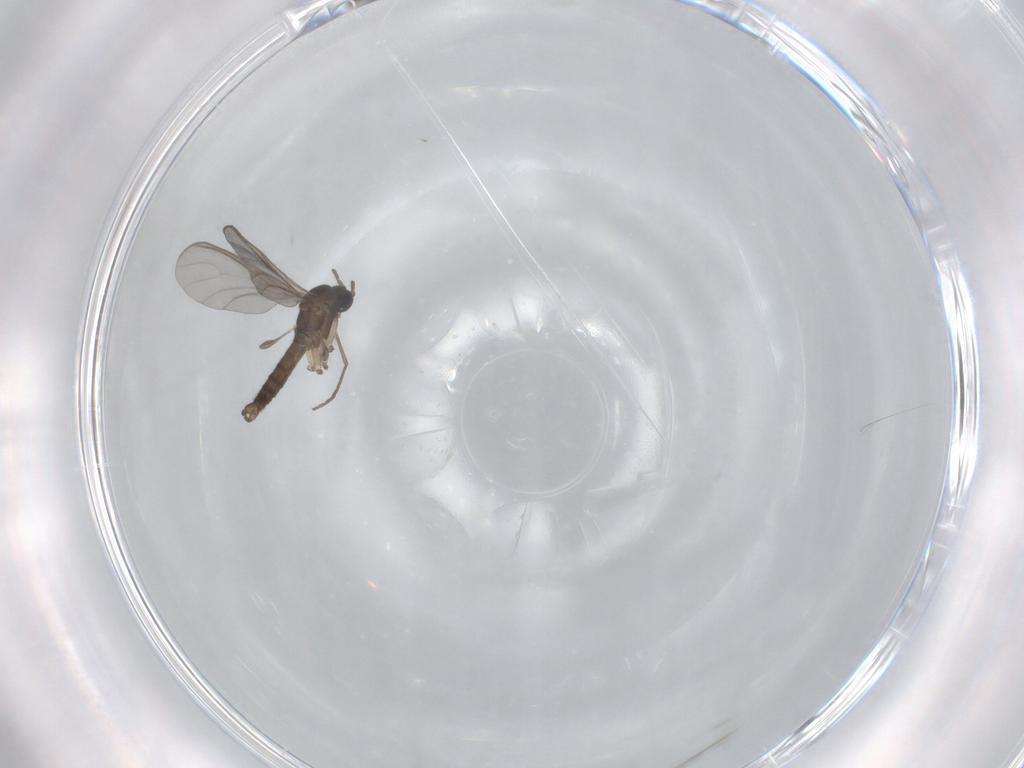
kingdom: Animalia
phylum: Arthropoda
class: Insecta
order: Diptera
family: Sciaridae
